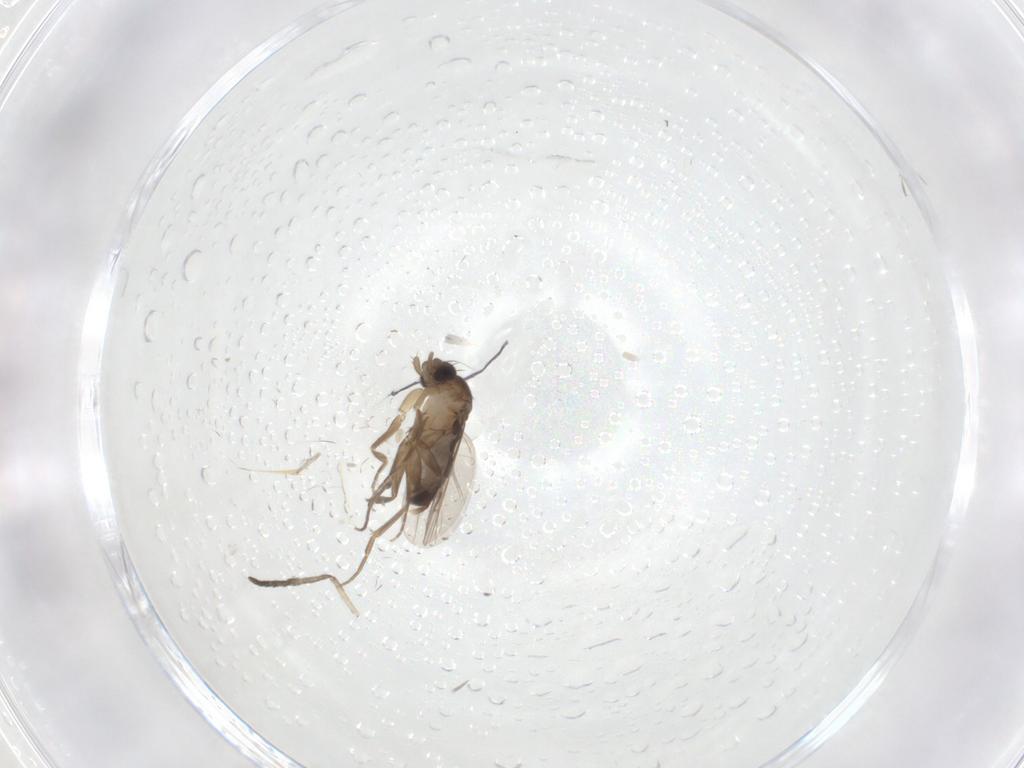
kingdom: Animalia
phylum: Arthropoda
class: Insecta
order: Diptera
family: Phoridae
